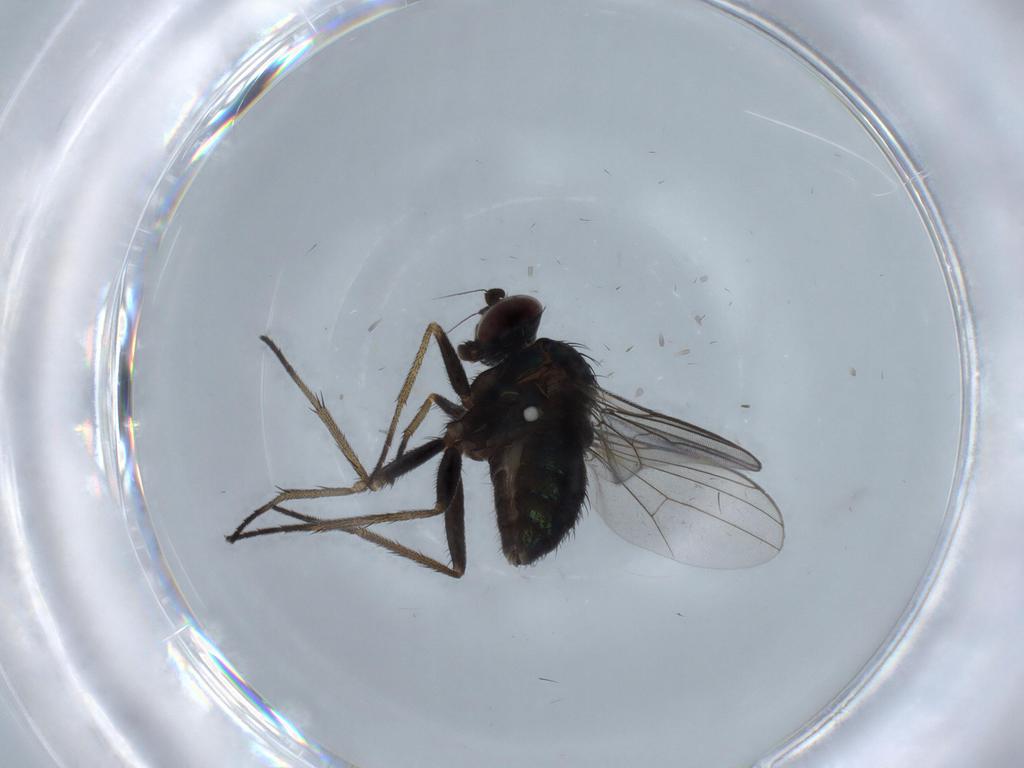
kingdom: Animalia
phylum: Arthropoda
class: Insecta
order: Diptera
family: Dolichopodidae
